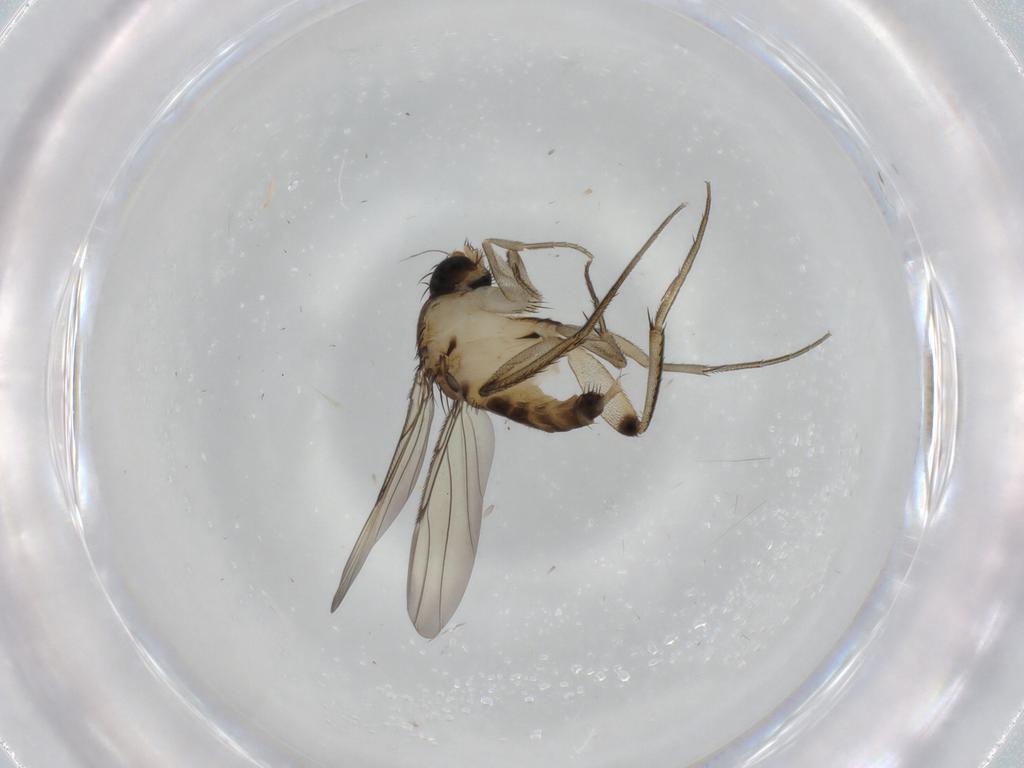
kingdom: Animalia
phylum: Arthropoda
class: Insecta
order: Diptera
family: Phoridae
